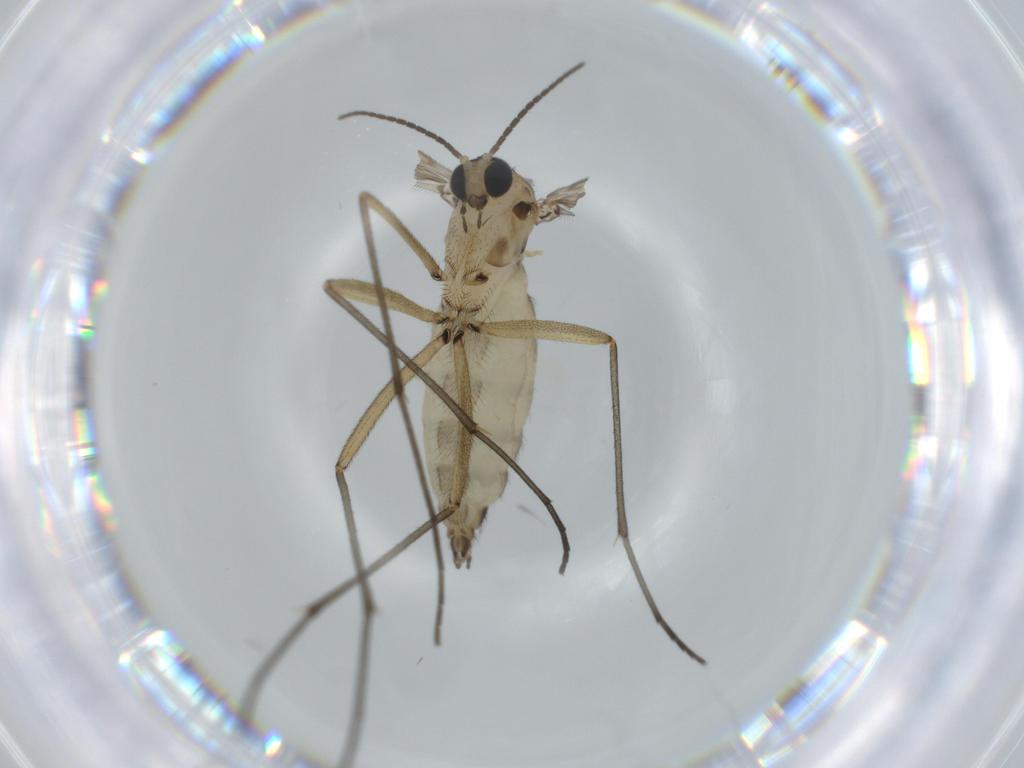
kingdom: Animalia
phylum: Arthropoda
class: Insecta
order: Diptera
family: Sciaridae
